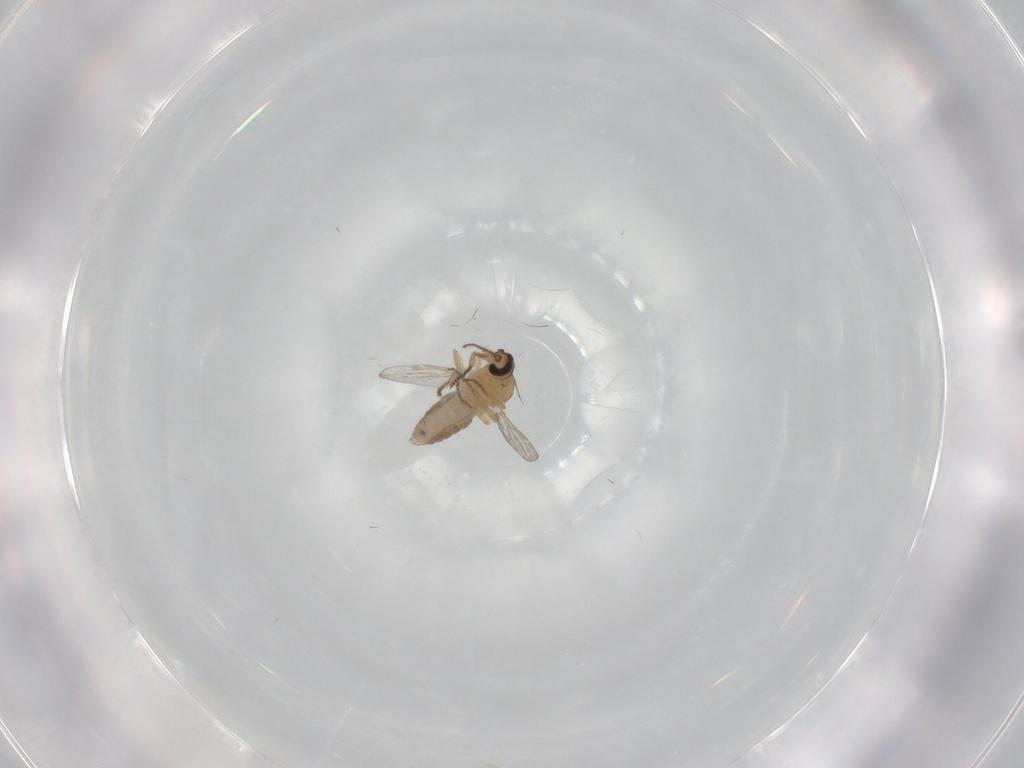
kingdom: Animalia
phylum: Arthropoda
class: Insecta
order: Diptera
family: Ceratopogonidae
